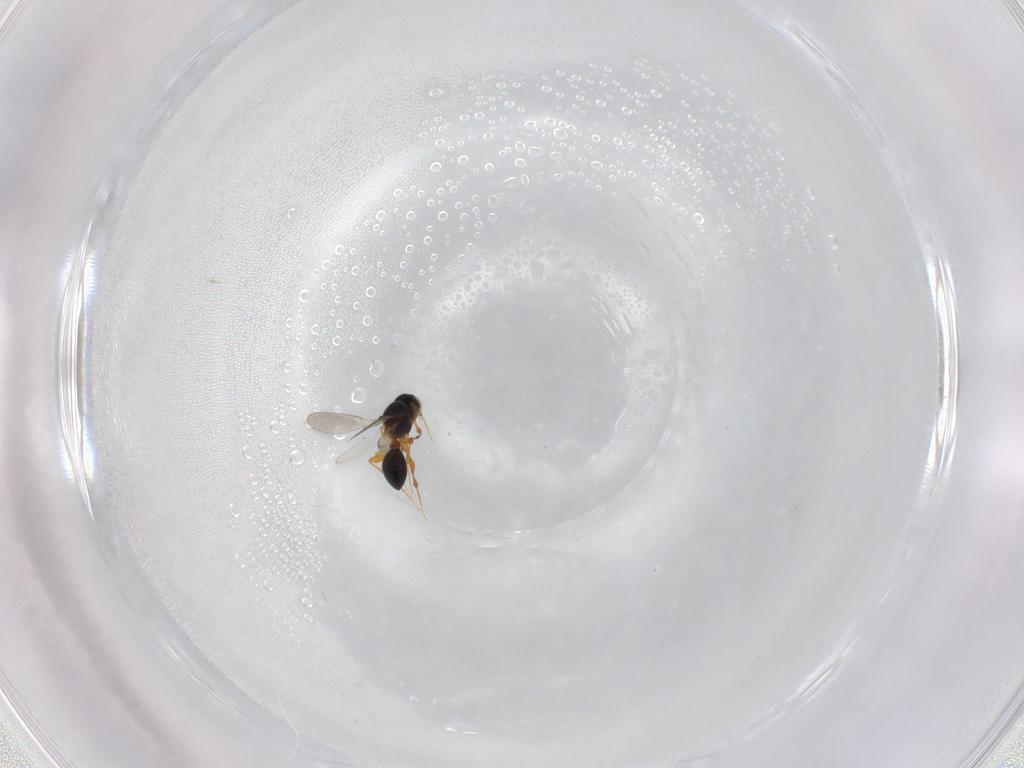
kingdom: Animalia
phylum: Arthropoda
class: Insecta
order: Hymenoptera
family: Platygastridae
